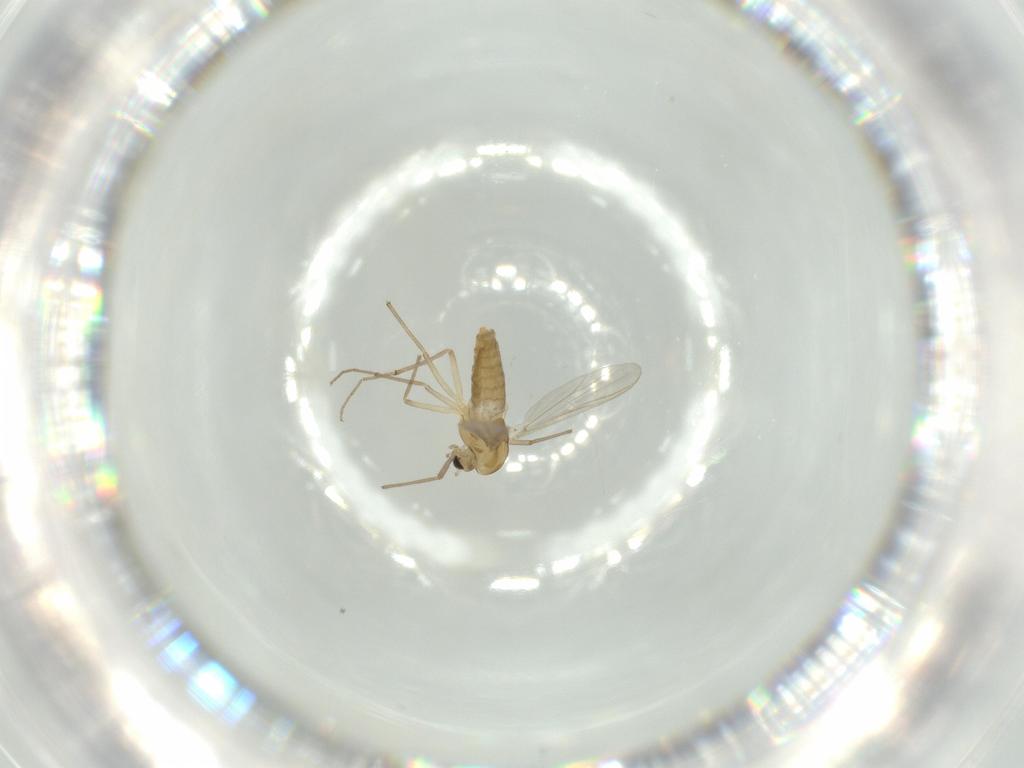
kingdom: Animalia
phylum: Arthropoda
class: Insecta
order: Diptera
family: Chironomidae
